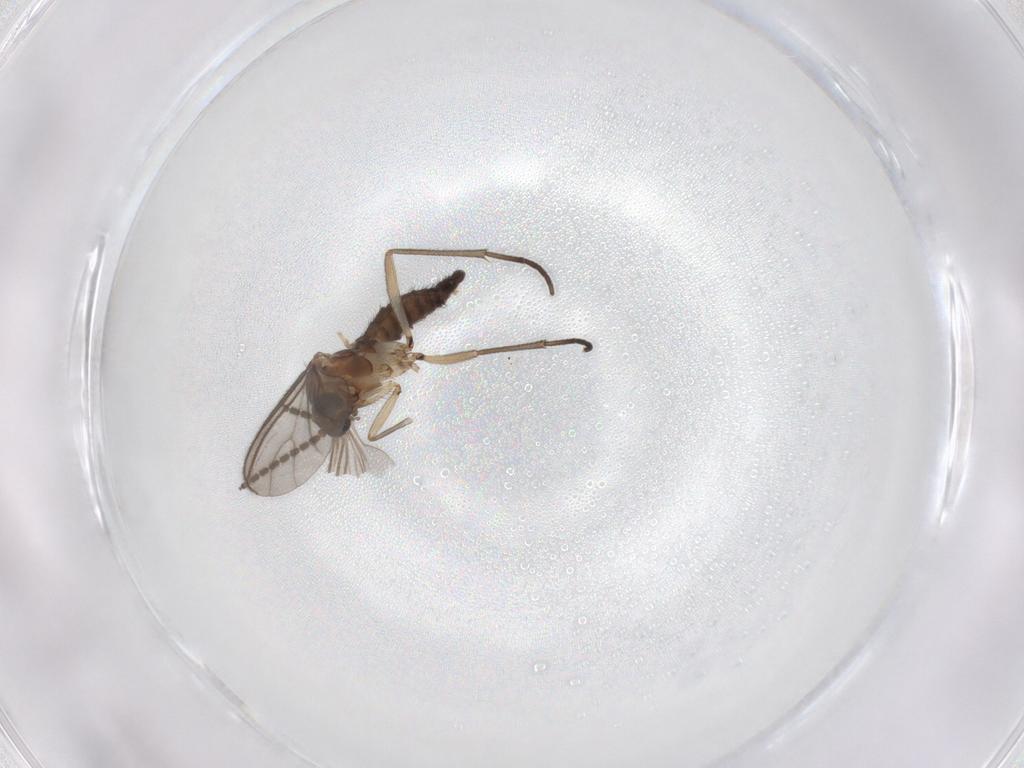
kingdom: Animalia
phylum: Arthropoda
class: Insecta
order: Diptera
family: Sciaridae
